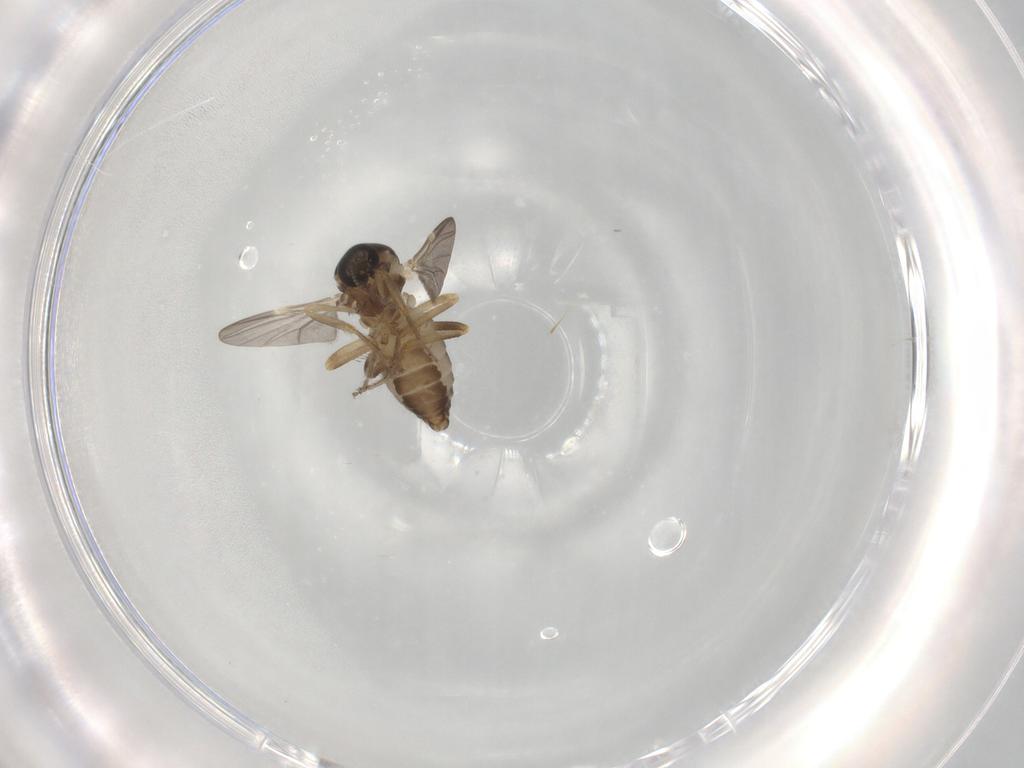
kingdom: Animalia
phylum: Arthropoda
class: Insecta
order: Diptera
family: Ceratopogonidae
